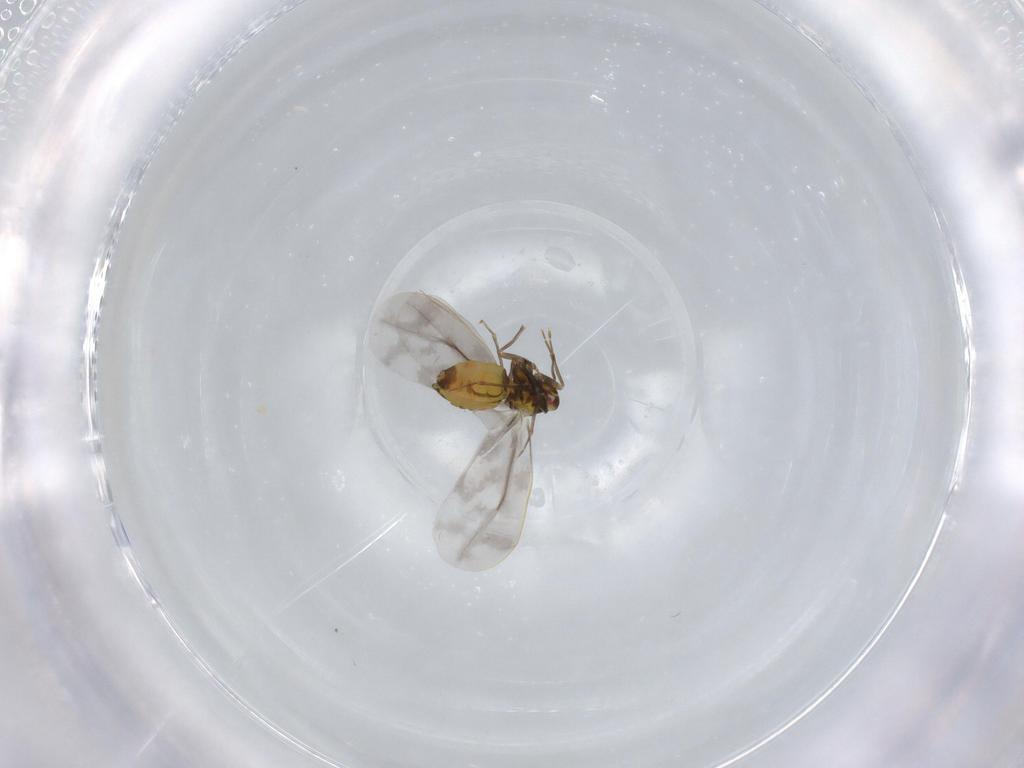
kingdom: Animalia
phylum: Arthropoda
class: Insecta
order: Hemiptera
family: Aleyrodidae
